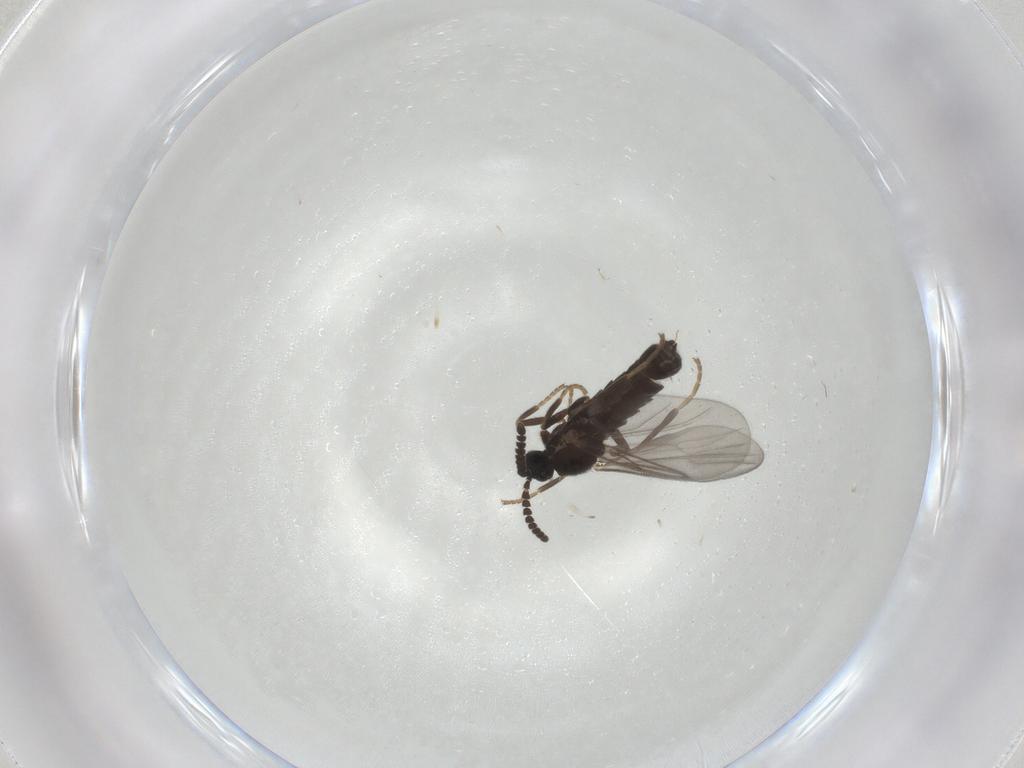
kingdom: Animalia
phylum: Arthropoda
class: Insecta
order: Diptera
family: Scatopsidae
